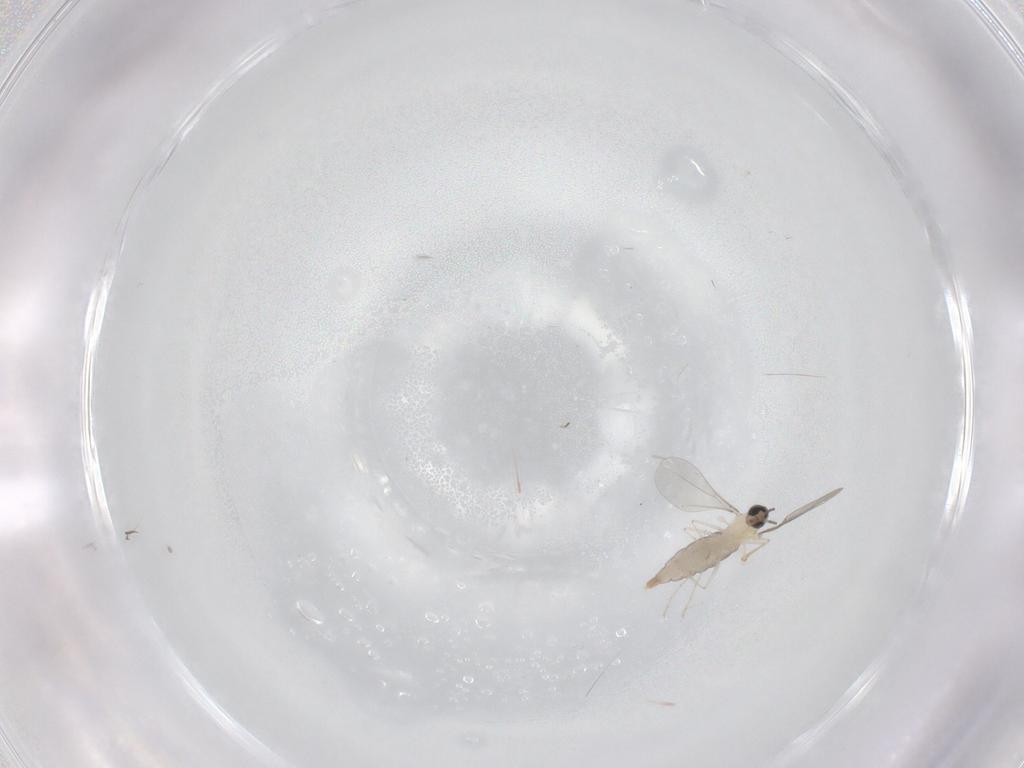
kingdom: Animalia
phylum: Arthropoda
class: Insecta
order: Diptera
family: Cecidomyiidae
